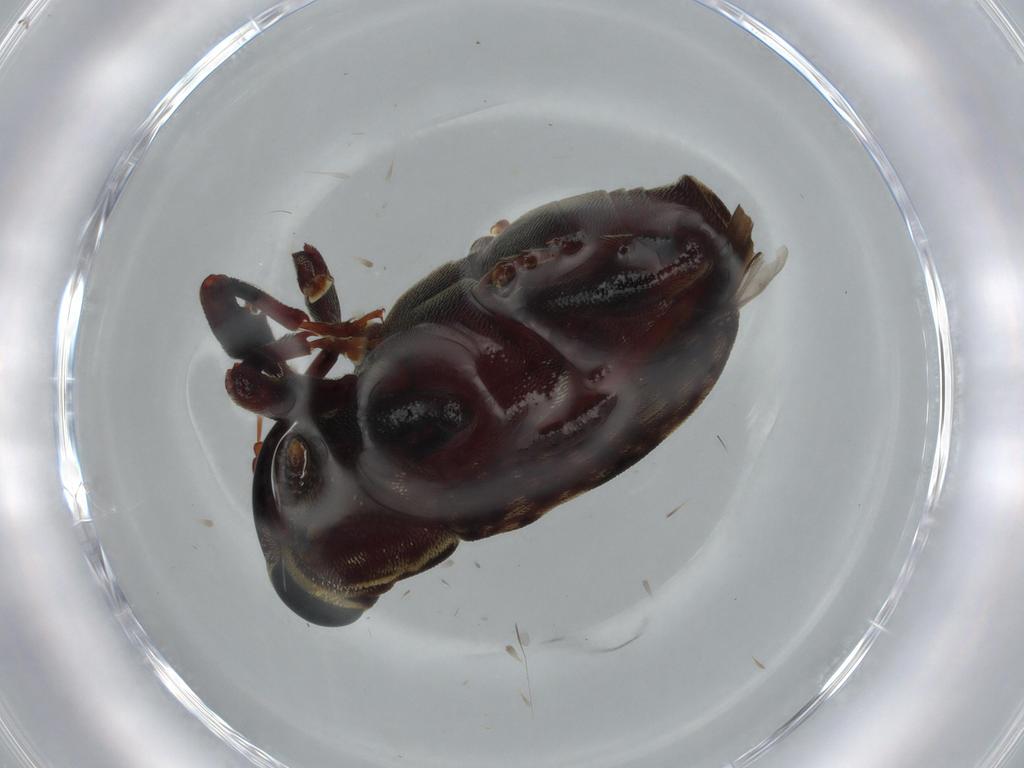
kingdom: Animalia
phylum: Arthropoda
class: Insecta
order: Coleoptera
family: Curculionidae
